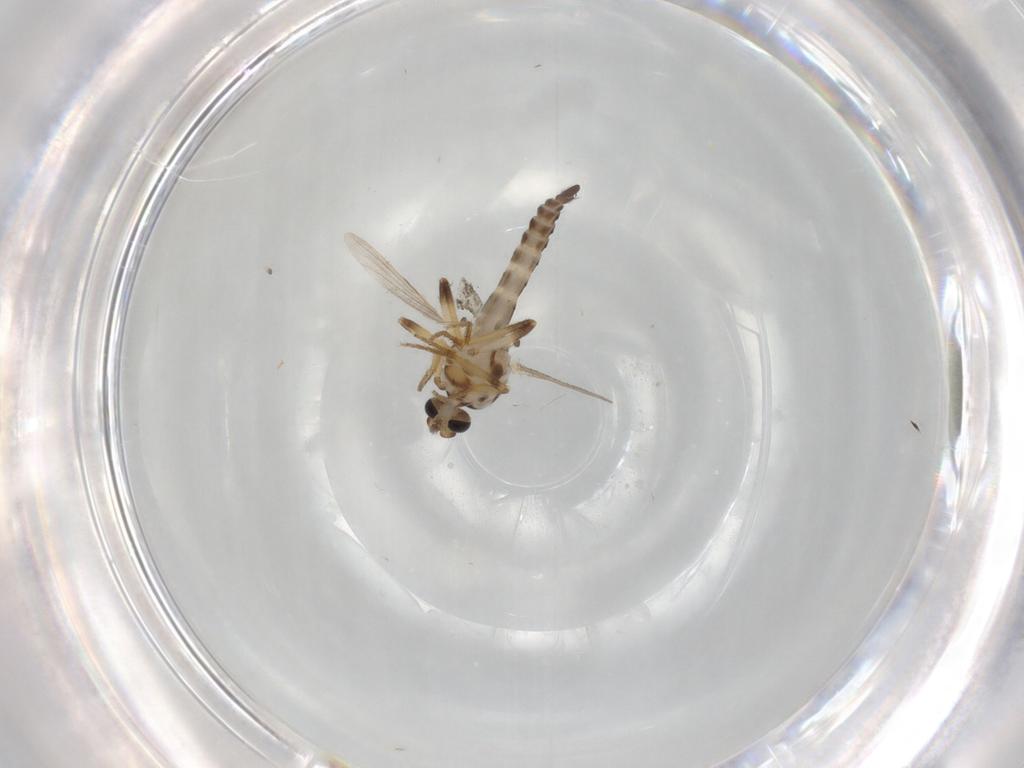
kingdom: Animalia
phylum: Arthropoda
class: Insecta
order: Diptera
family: Ceratopogonidae
